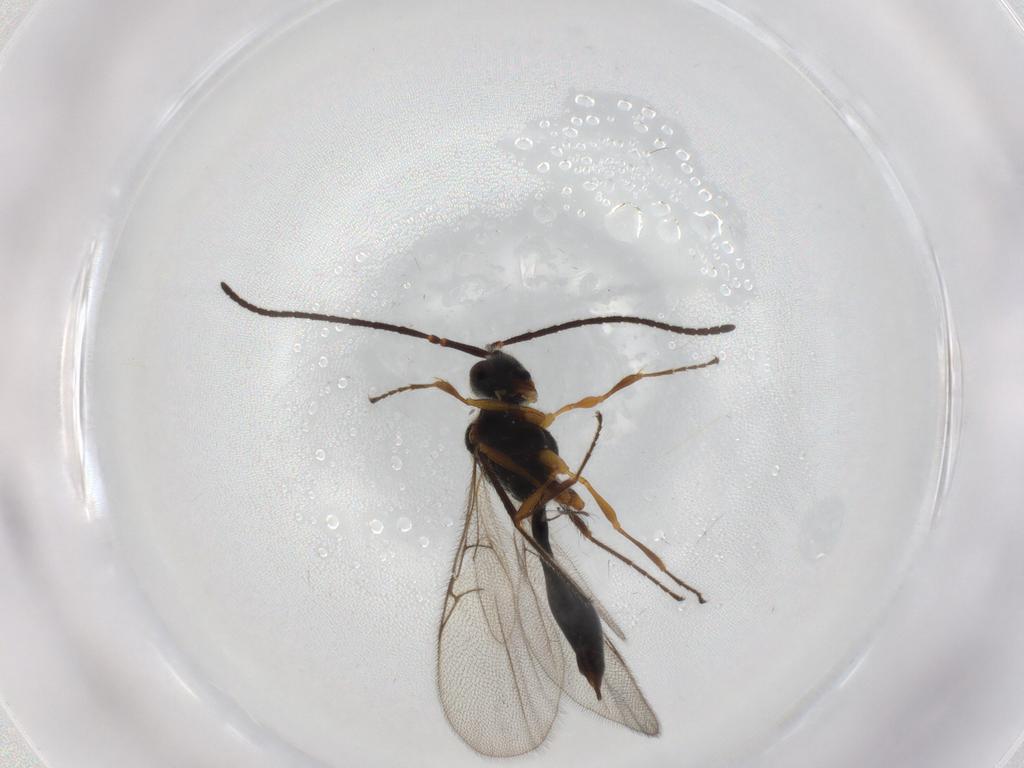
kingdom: Animalia
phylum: Arthropoda
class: Insecta
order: Hymenoptera
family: Diapriidae
